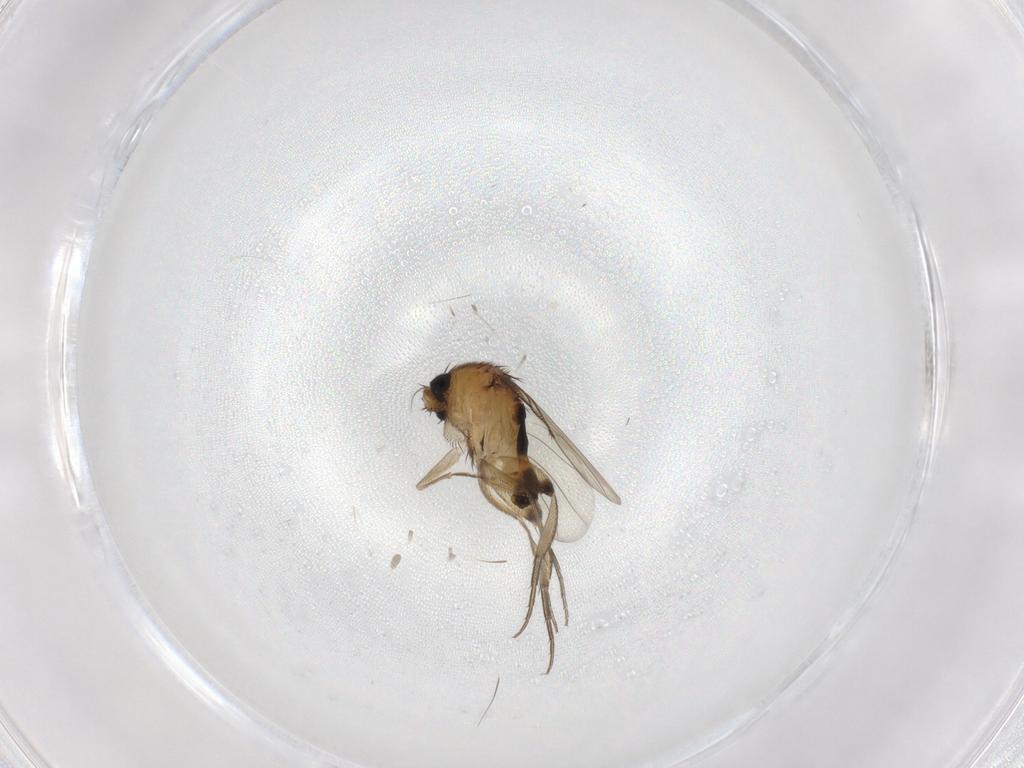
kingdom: Animalia
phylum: Arthropoda
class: Insecta
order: Diptera
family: Phoridae
